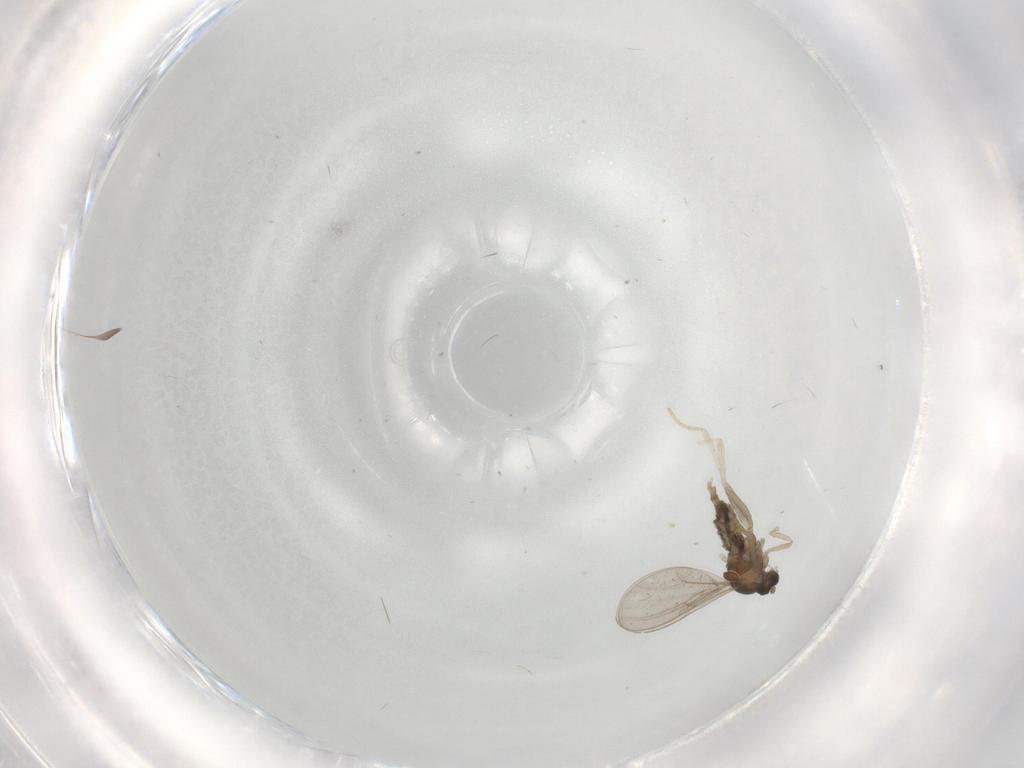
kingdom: Animalia
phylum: Arthropoda
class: Insecta
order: Diptera
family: Cecidomyiidae
